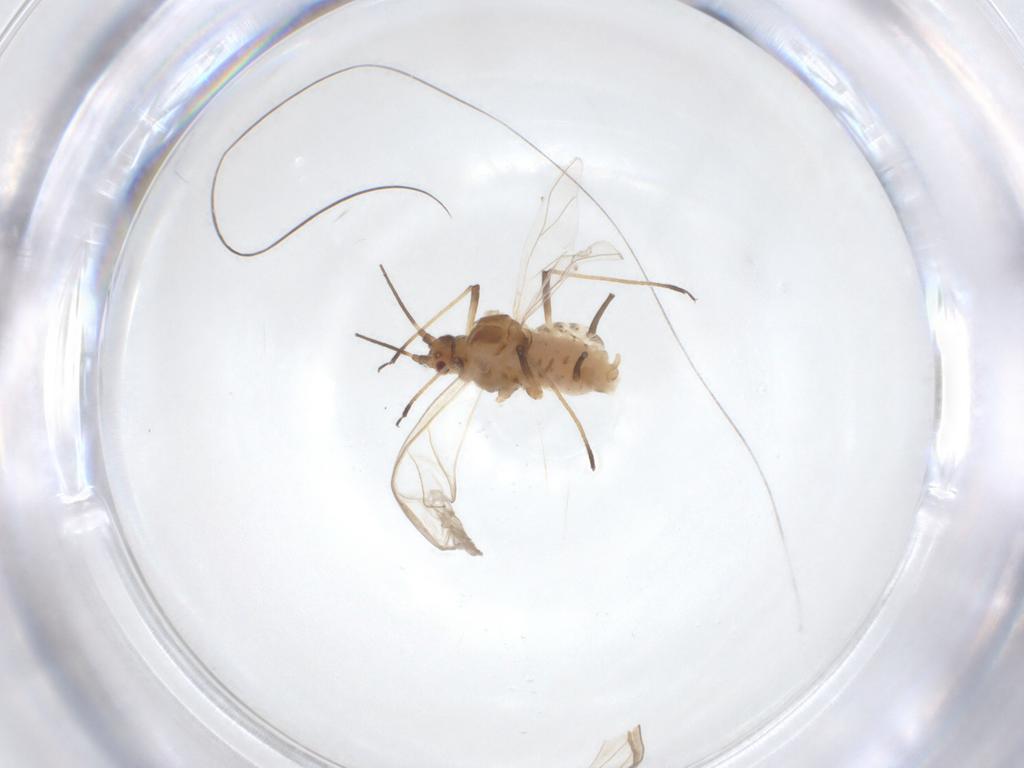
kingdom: Animalia
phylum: Arthropoda
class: Insecta
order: Hemiptera
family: Aphididae
